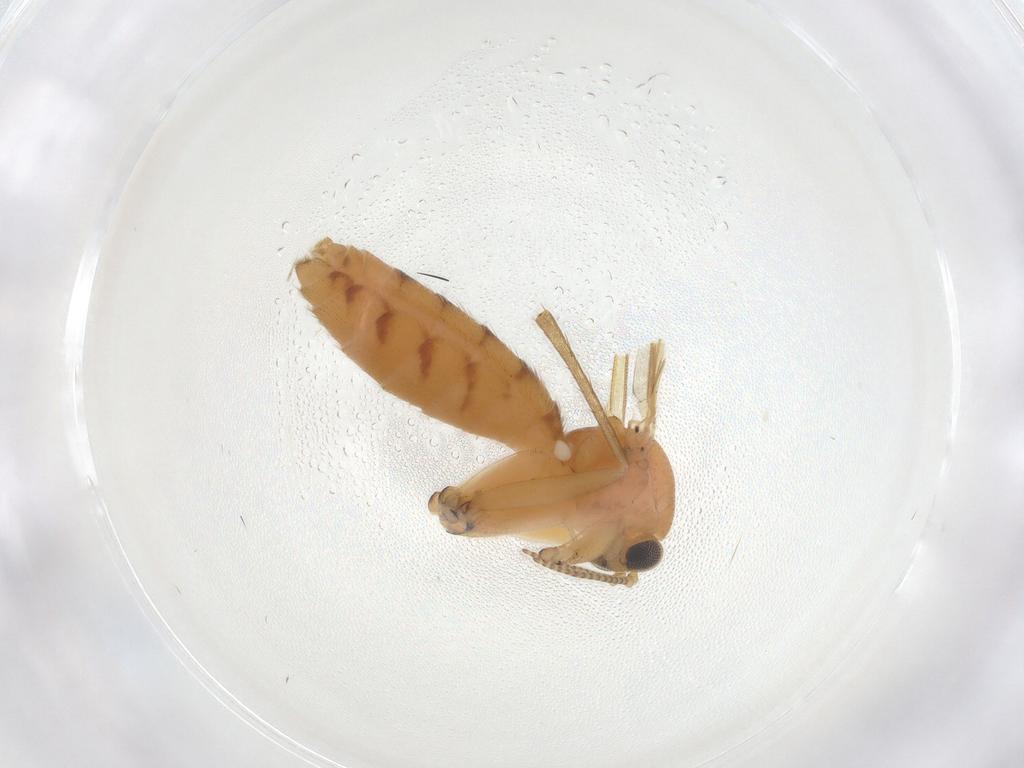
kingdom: Animalia
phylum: Arthropoda
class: Insecta
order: Diptera
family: Mycetophilidae
